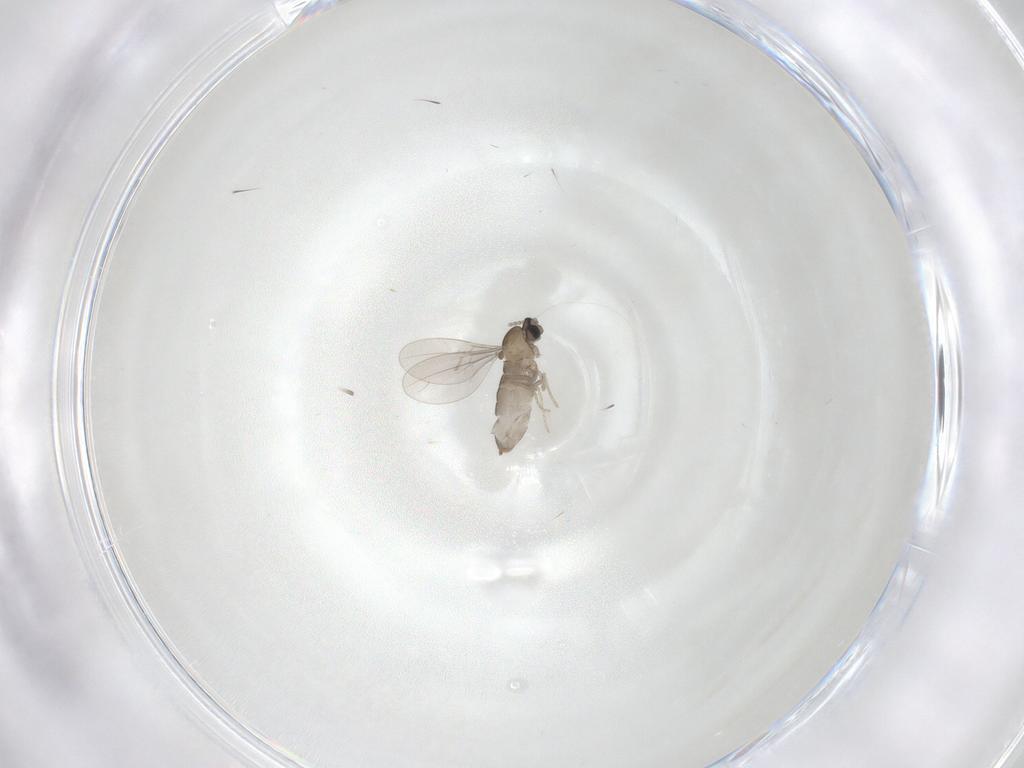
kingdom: Animalia
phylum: Arthropoda
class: Insecta
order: Diptera
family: Cecidomyiidae
